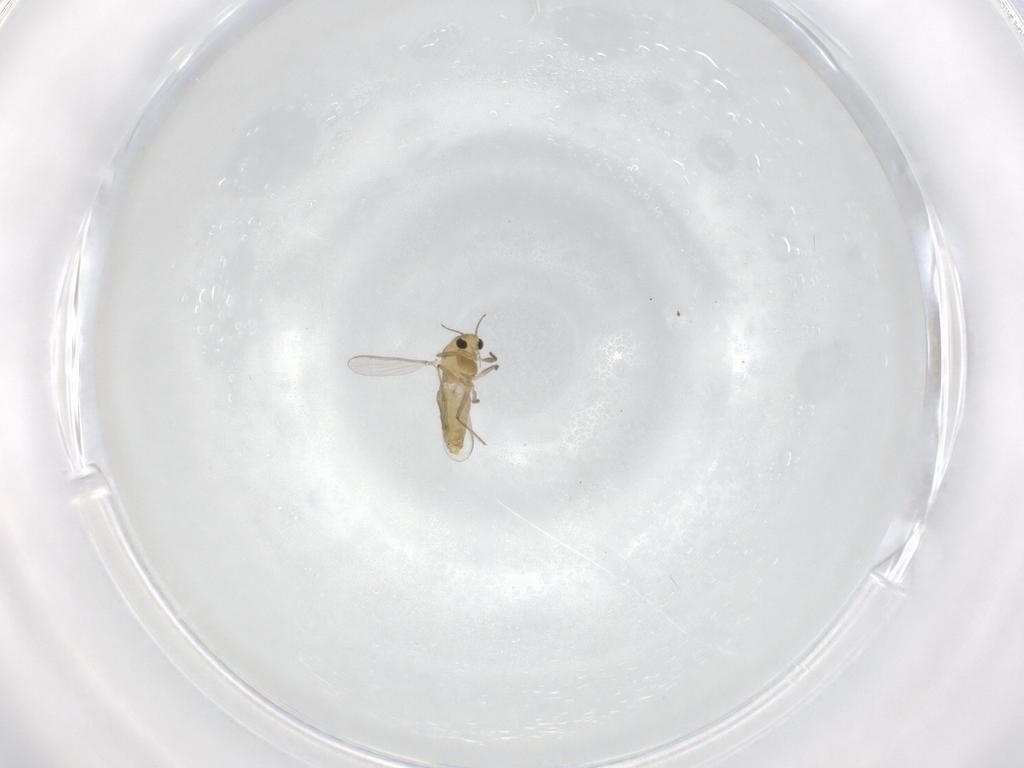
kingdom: Animalia
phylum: Arthropoda
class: Insecta
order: Diptera
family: Chironomidae
